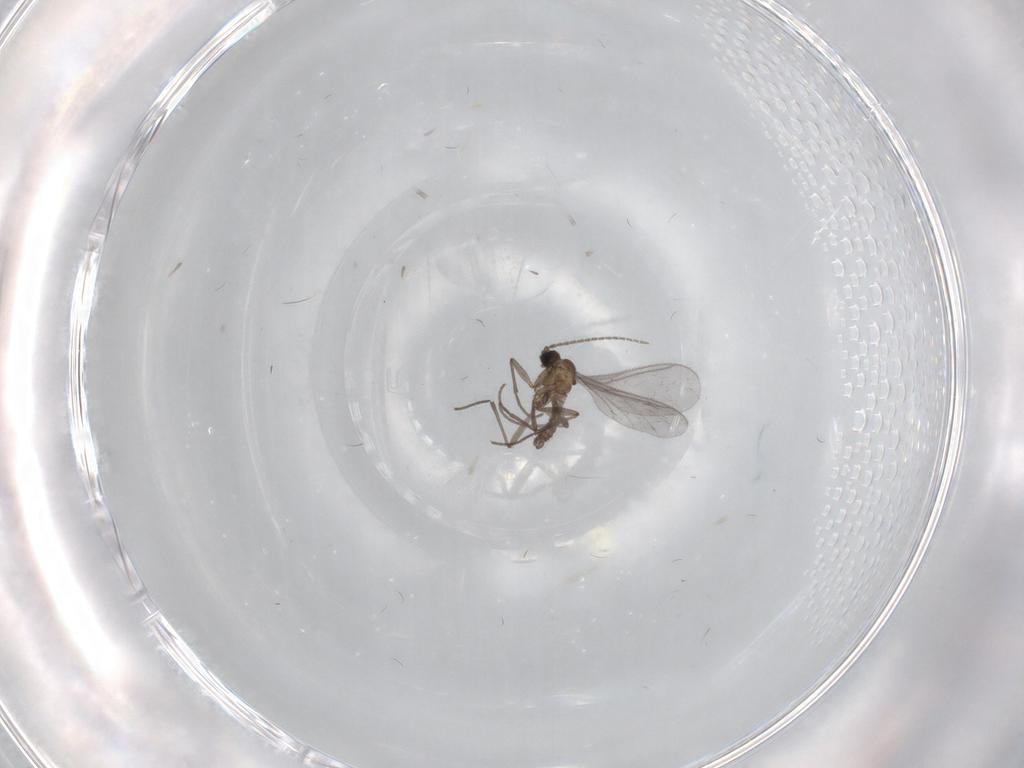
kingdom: Animalia
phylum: Arthropoda
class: Insecta
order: Diptera
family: Sciaridae
